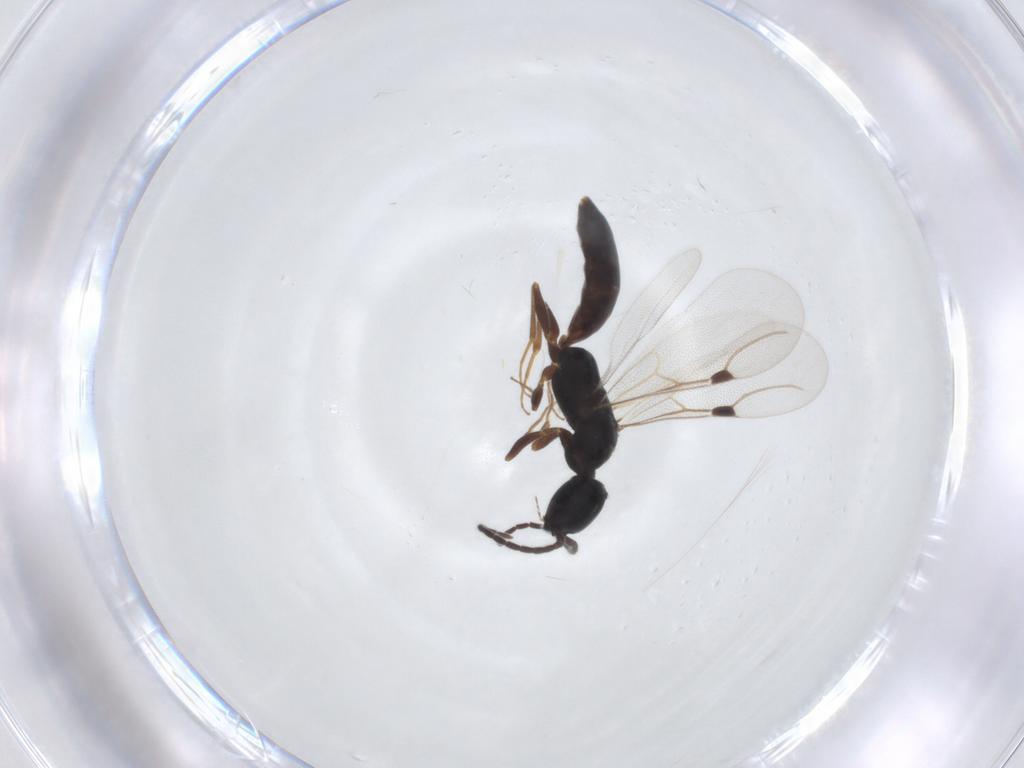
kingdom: Animalia
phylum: Arthropoda
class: Insecta
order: Hymenoptera
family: Bethylidae
